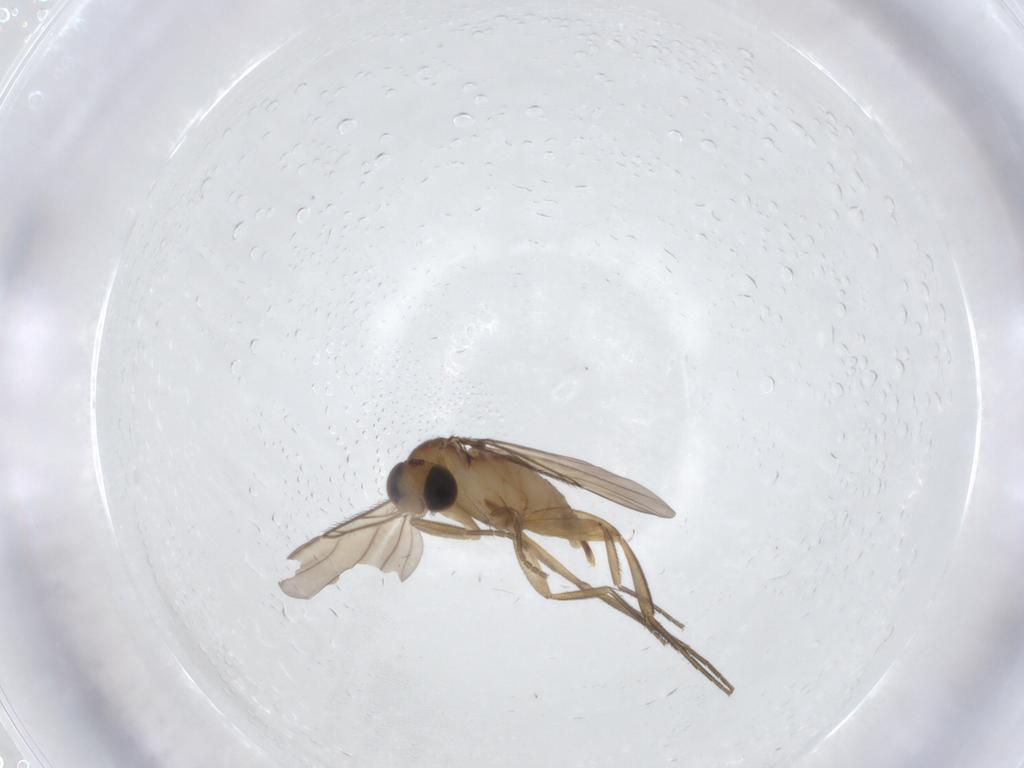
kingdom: Animalia
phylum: Arthropoda
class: Insecta
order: Diptera
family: Phoridae
